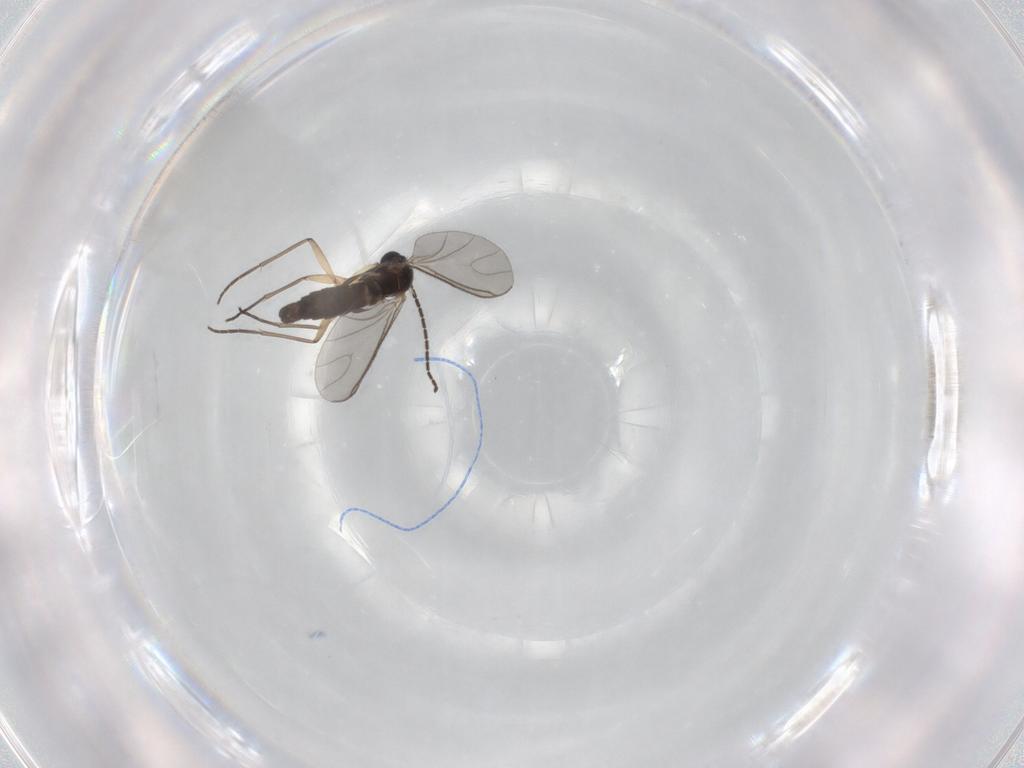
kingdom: Animalia
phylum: Arthropoda
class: Insecta
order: Diptera
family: Sciaridae
